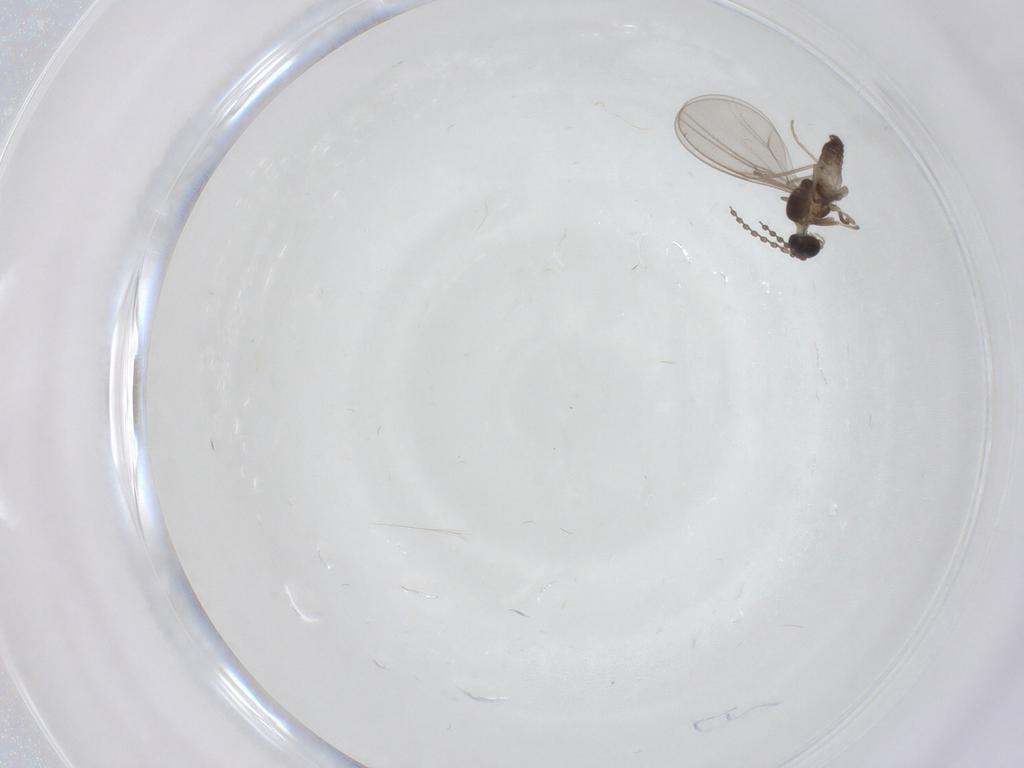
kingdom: Animalia
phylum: Arthropoda
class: Insecta
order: Diptera
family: Cecidomyiidae
